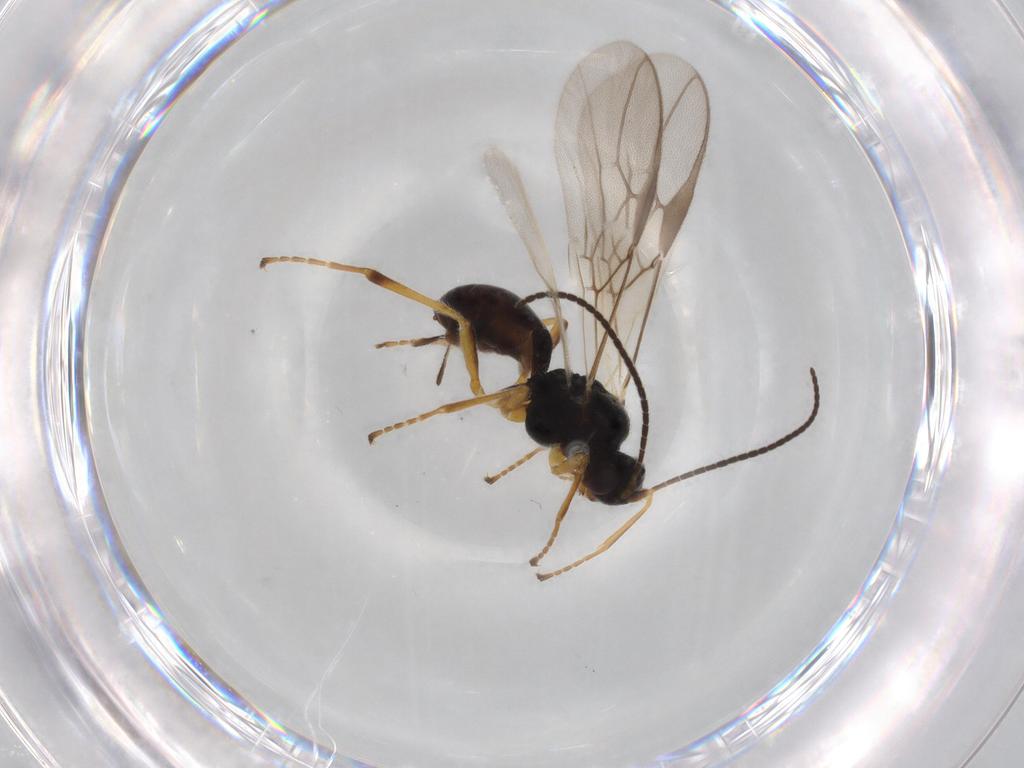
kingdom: Animalia
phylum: Arthropoda
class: Insecta
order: Hymenoptera
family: Braconidae
